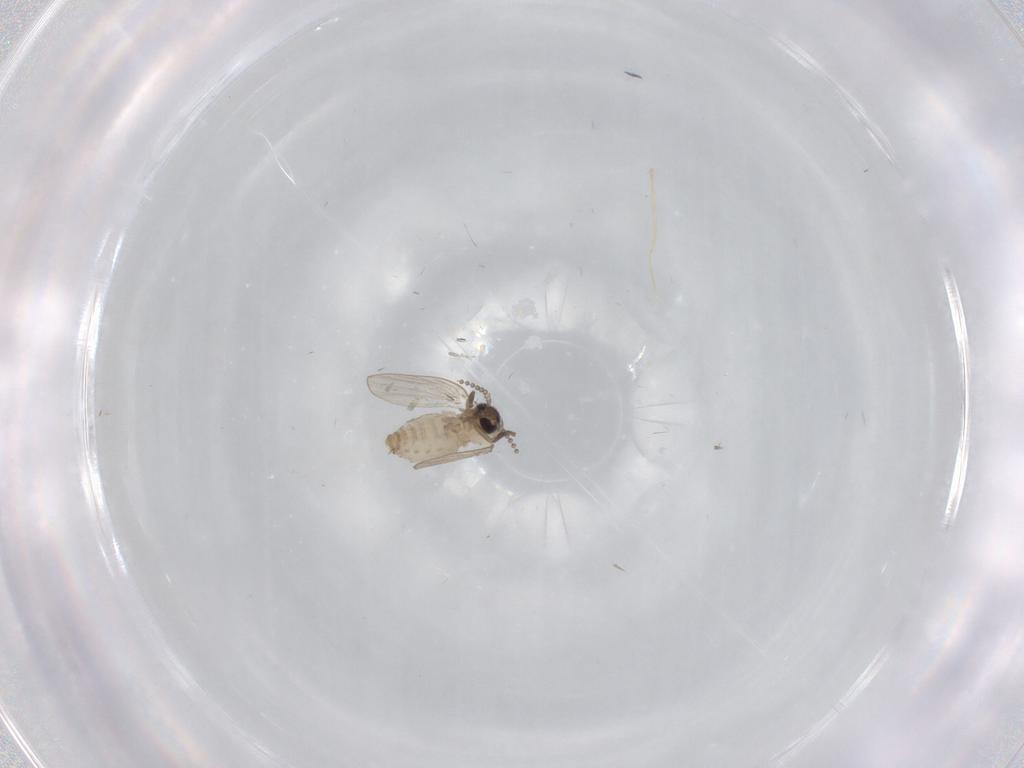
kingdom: Animalia
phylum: Arthropoda
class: Insecta
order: Diptera
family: Psychodidae
